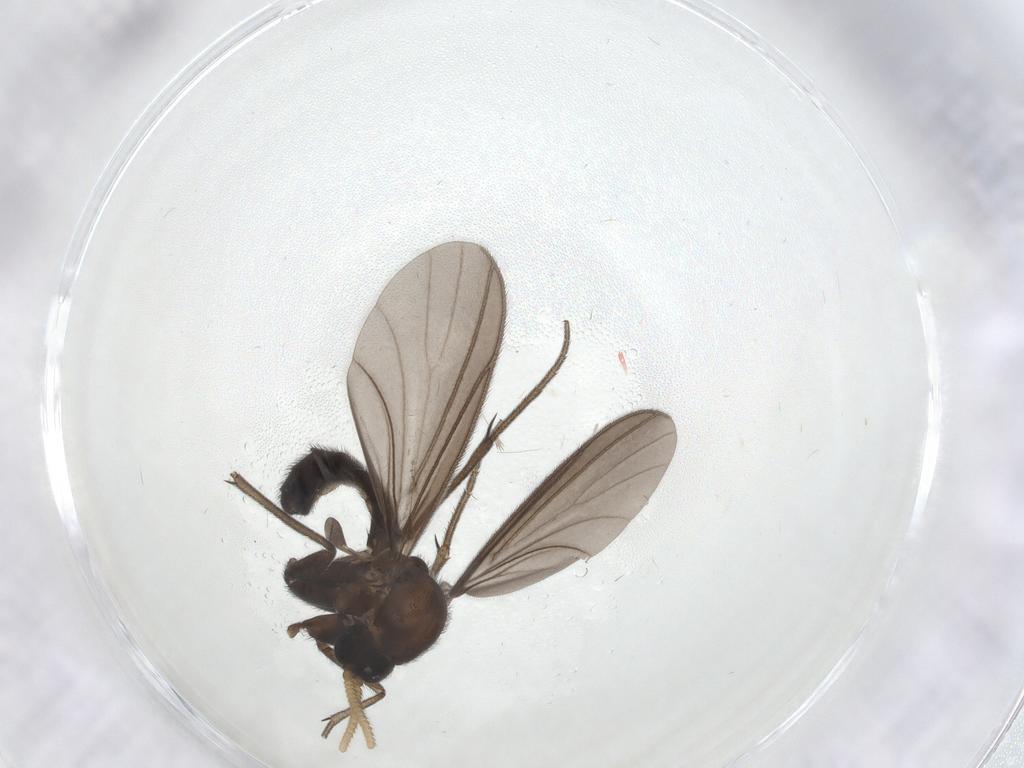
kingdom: Animalia
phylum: Arthropoda
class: Insecta
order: Diptera
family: Mycetophilidae
